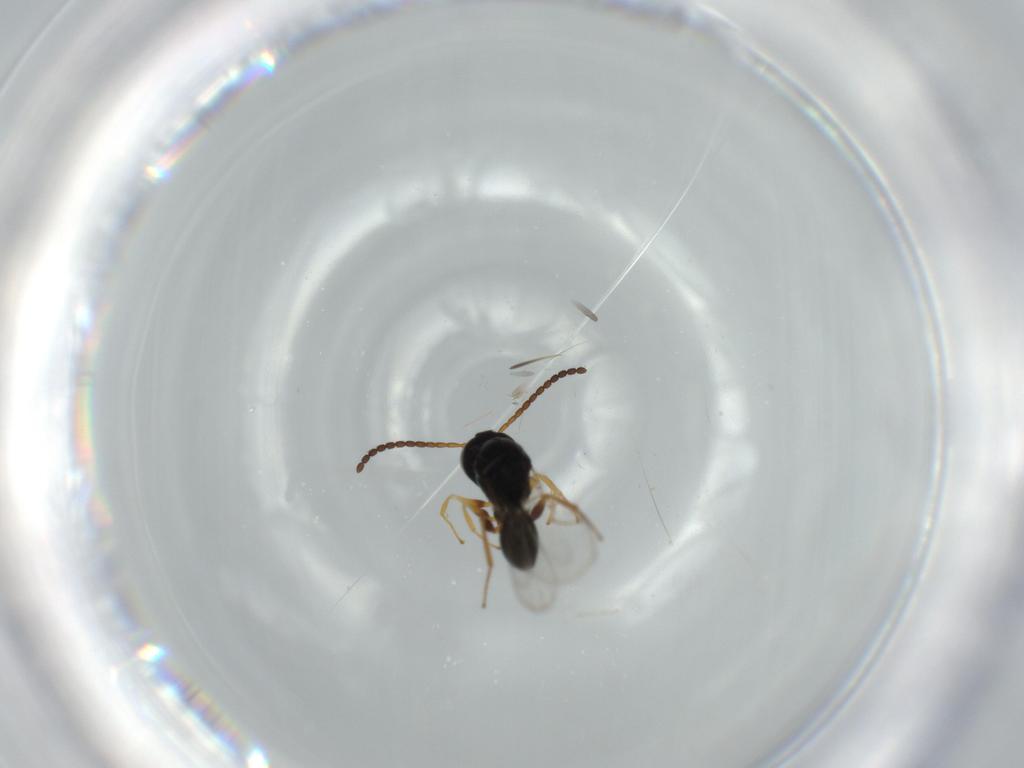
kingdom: Animalia
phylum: Arthropoda
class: Insecta
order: Hymenoptera
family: Figitidae
